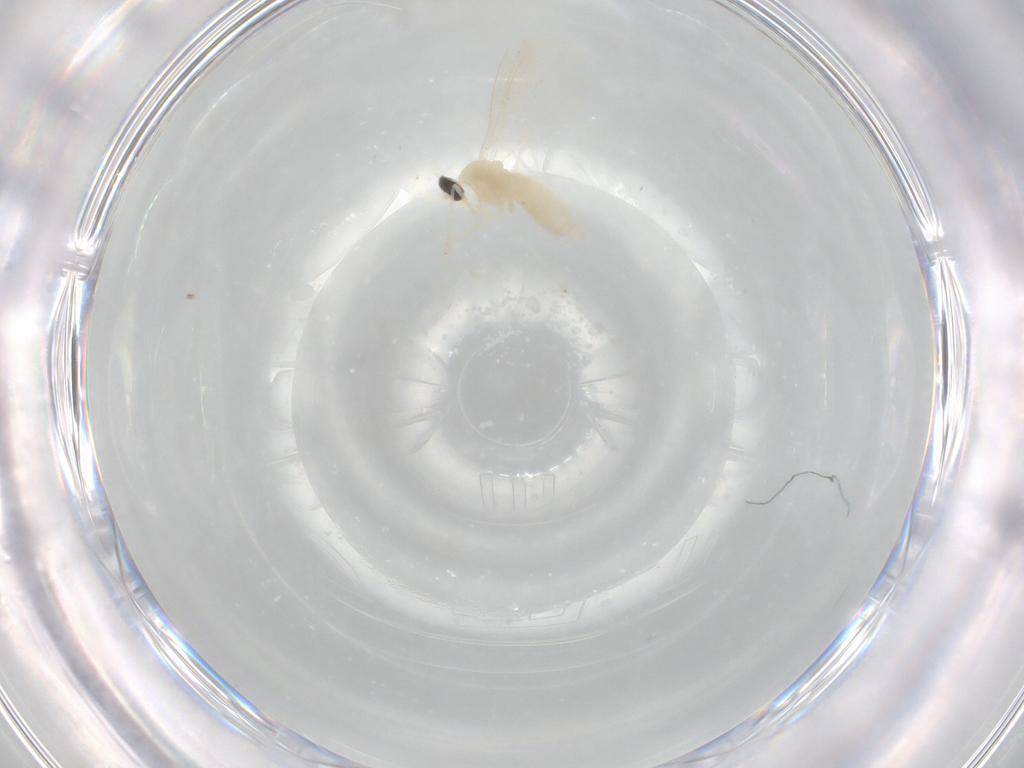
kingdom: Animalia
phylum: Arthropoda
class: Insecta
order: Diptera
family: Cecidomyiidae
